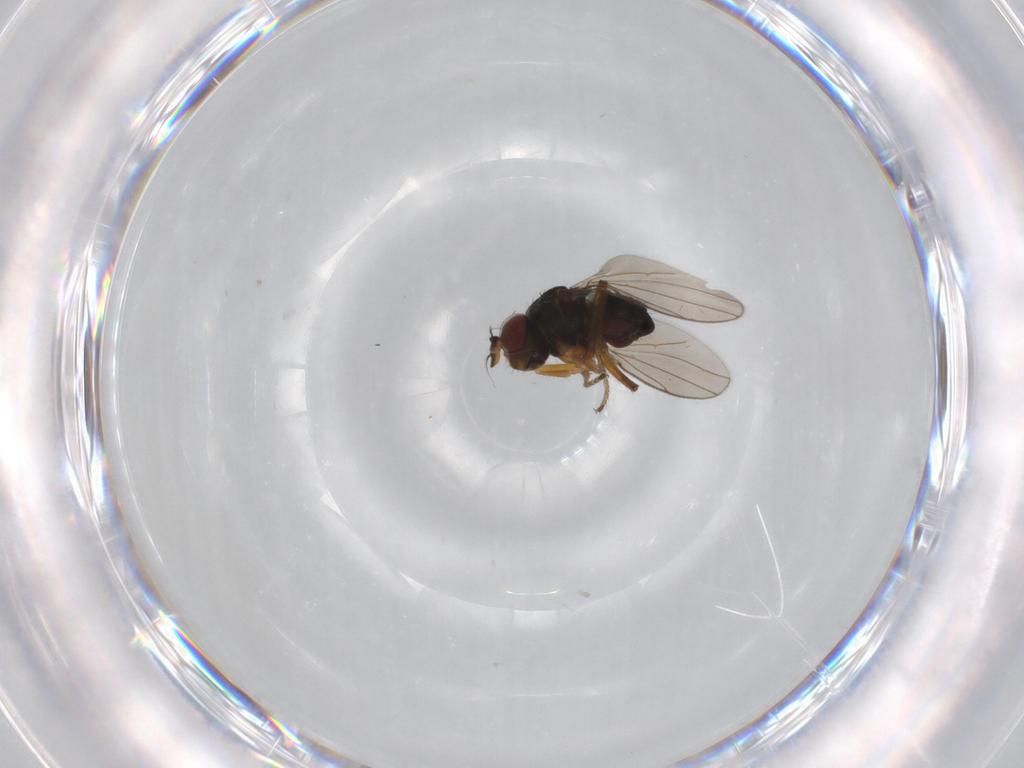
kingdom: Animalia
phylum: Arthropoda
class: Insecta
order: Diptera
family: Ephydridae
